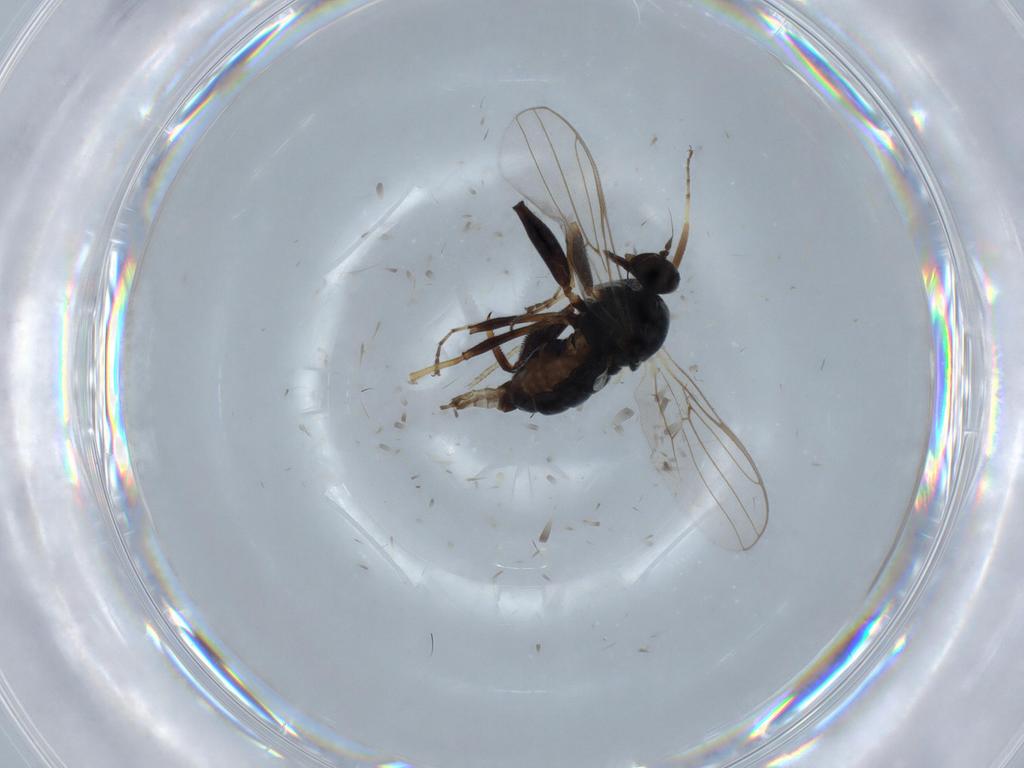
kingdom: Animalia
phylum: Arthropoda
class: Insecta
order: Diptera
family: Hybotidae
